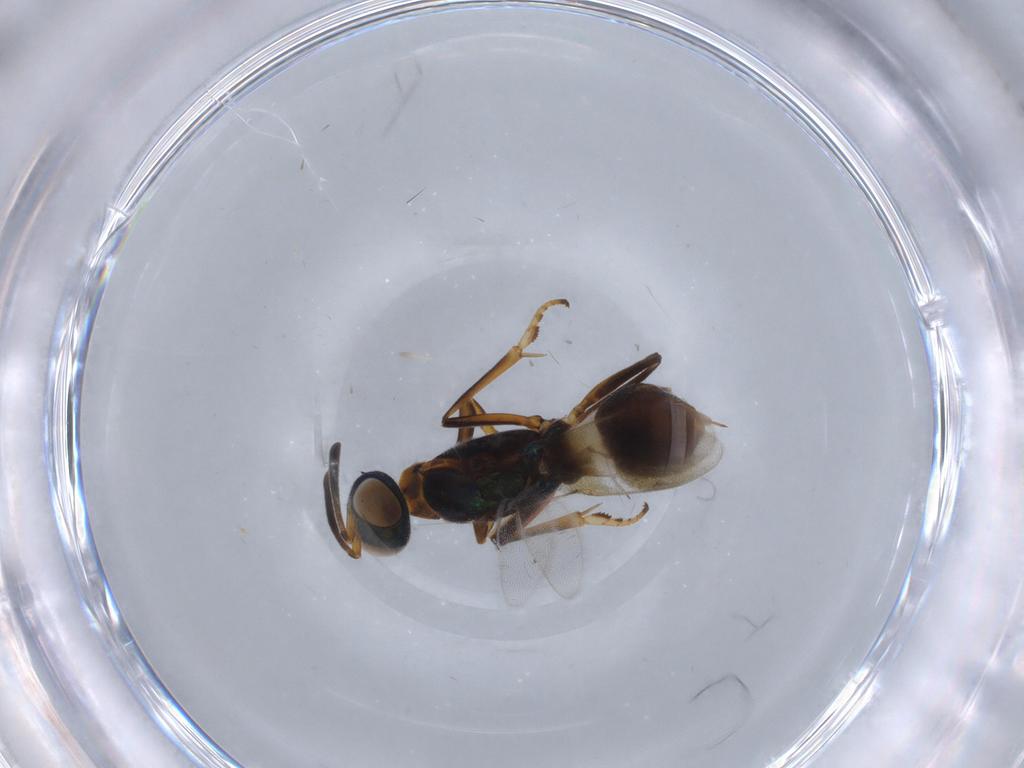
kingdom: Animalia
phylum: Arthropoda
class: Insecta
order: Hymenoptera
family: Eupelmidae
